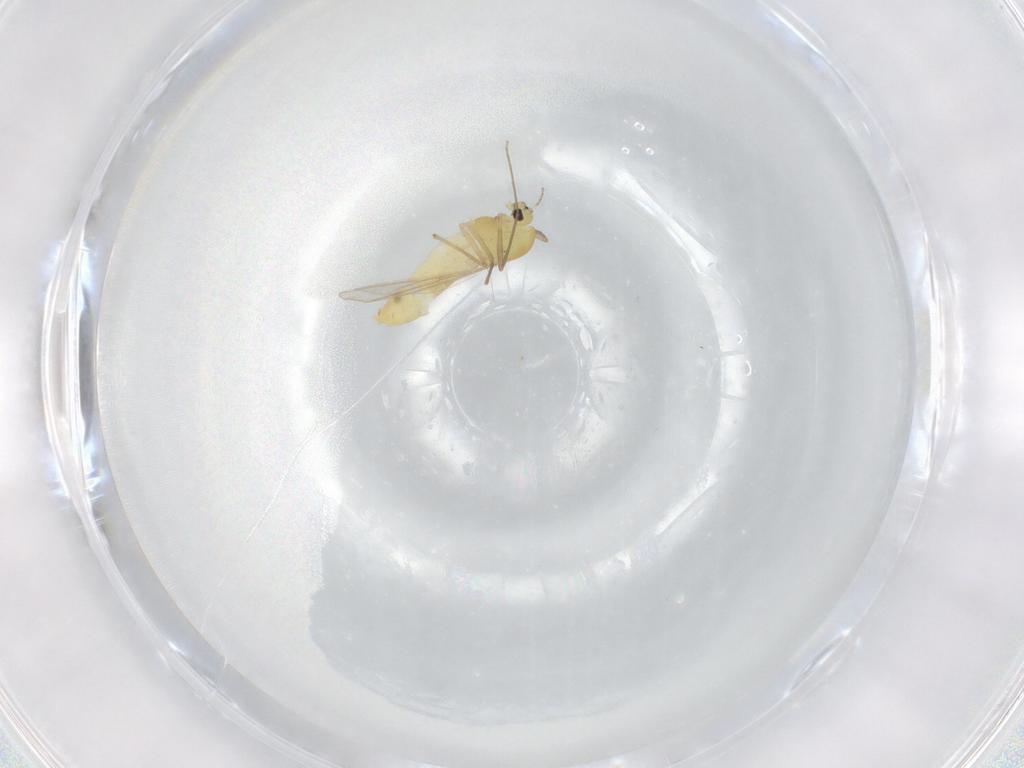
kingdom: Animalia
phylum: Arthropoda
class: Insecta
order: Diptera
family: Chironomidae
